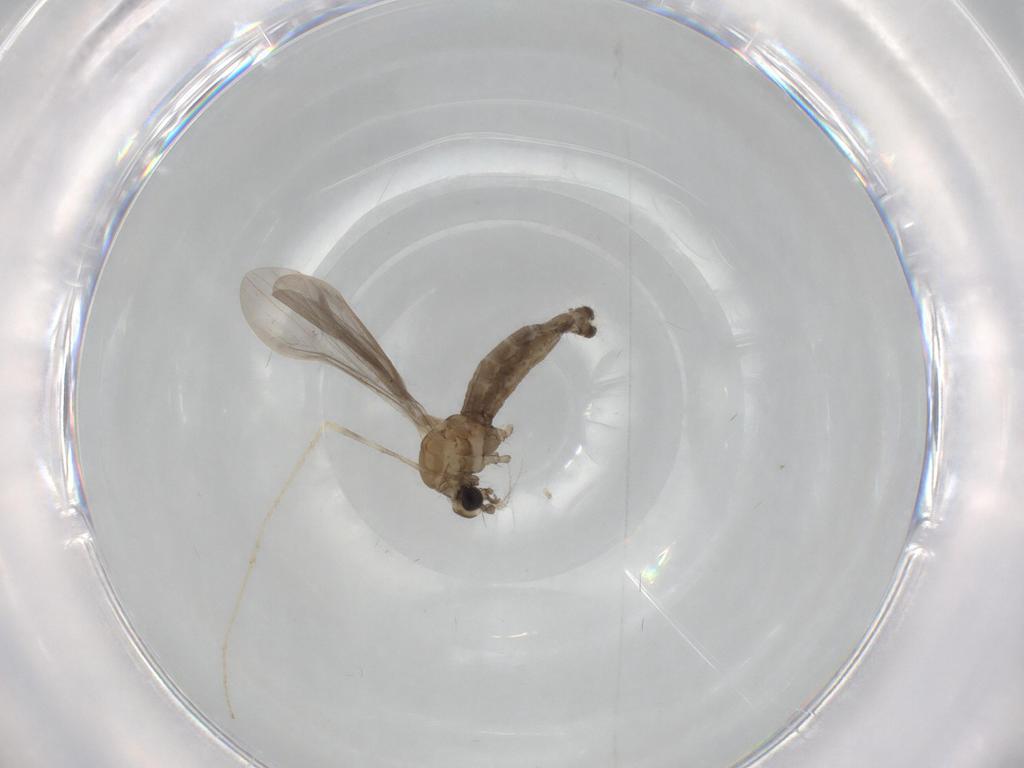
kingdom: Animalia
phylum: Arthropoda
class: Insecta
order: Diptera
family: Limoniidae
